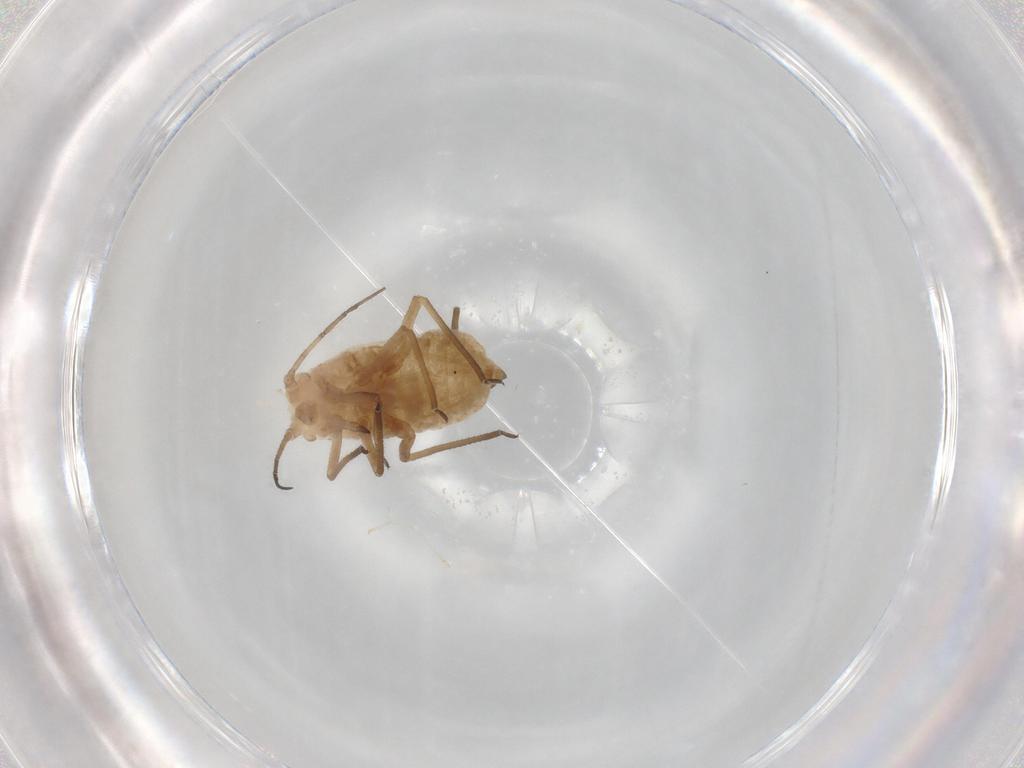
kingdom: Animalia
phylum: Arthropoda
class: Insecta
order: Hemiptera
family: Aphididae
